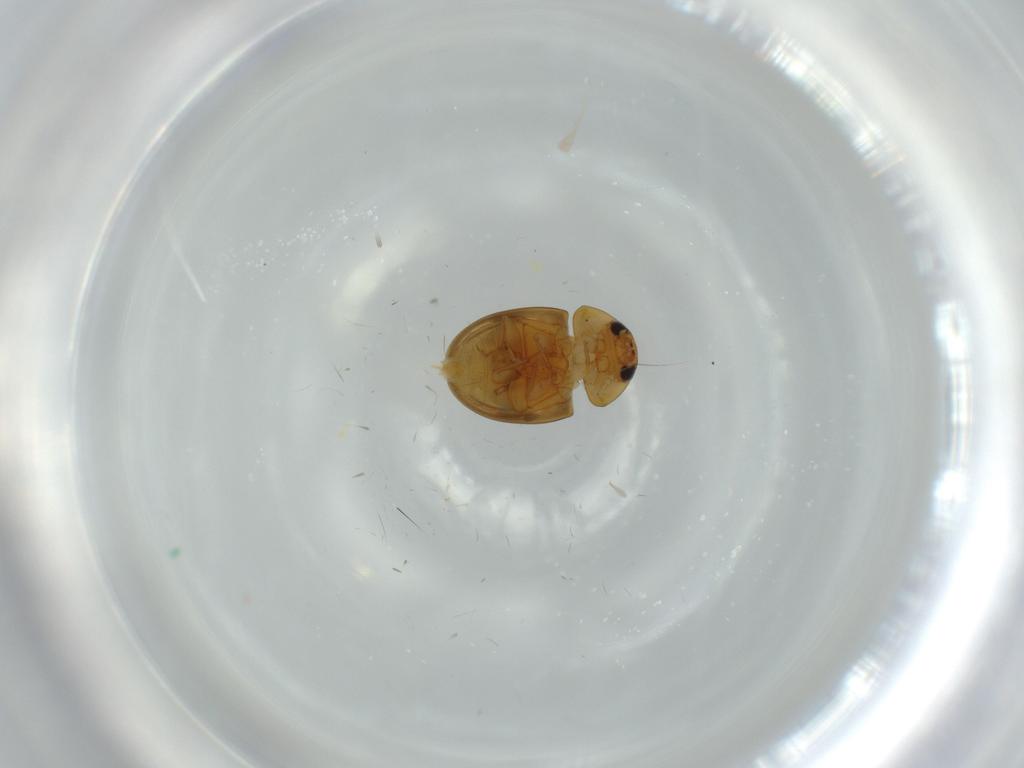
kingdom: Animalia
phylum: Arthropoda
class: Insecta
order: Coleoptera
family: Phalacridae
